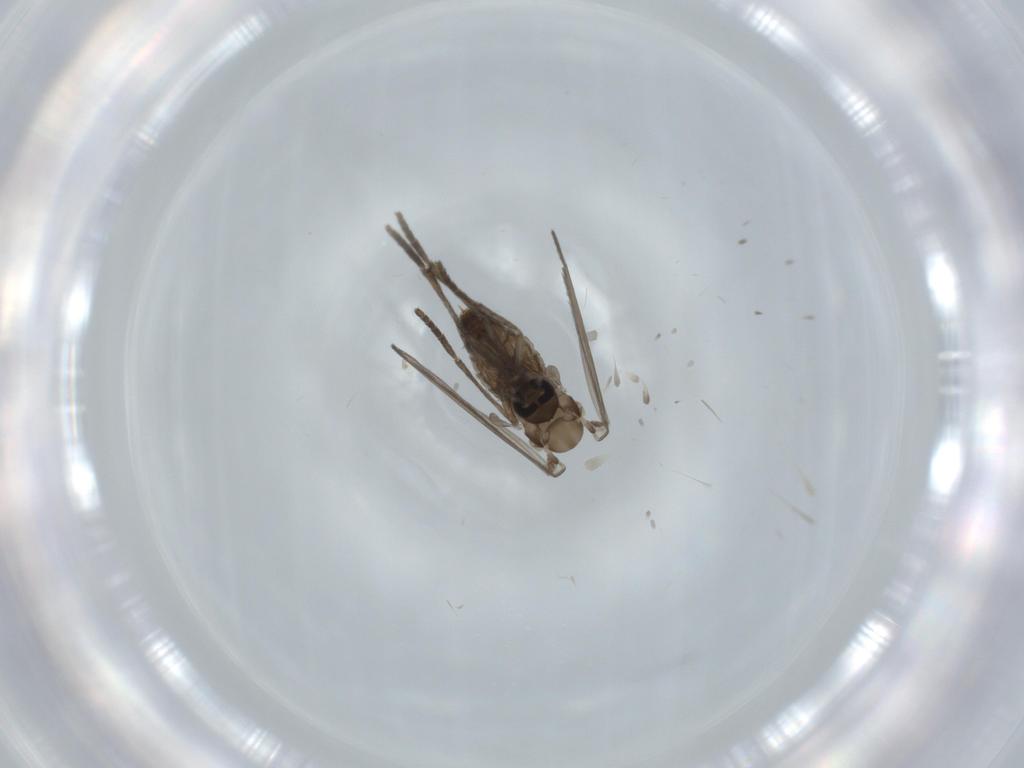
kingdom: Animalia
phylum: Arthropoda
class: Insecta
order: Diptera
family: Psychodidae
